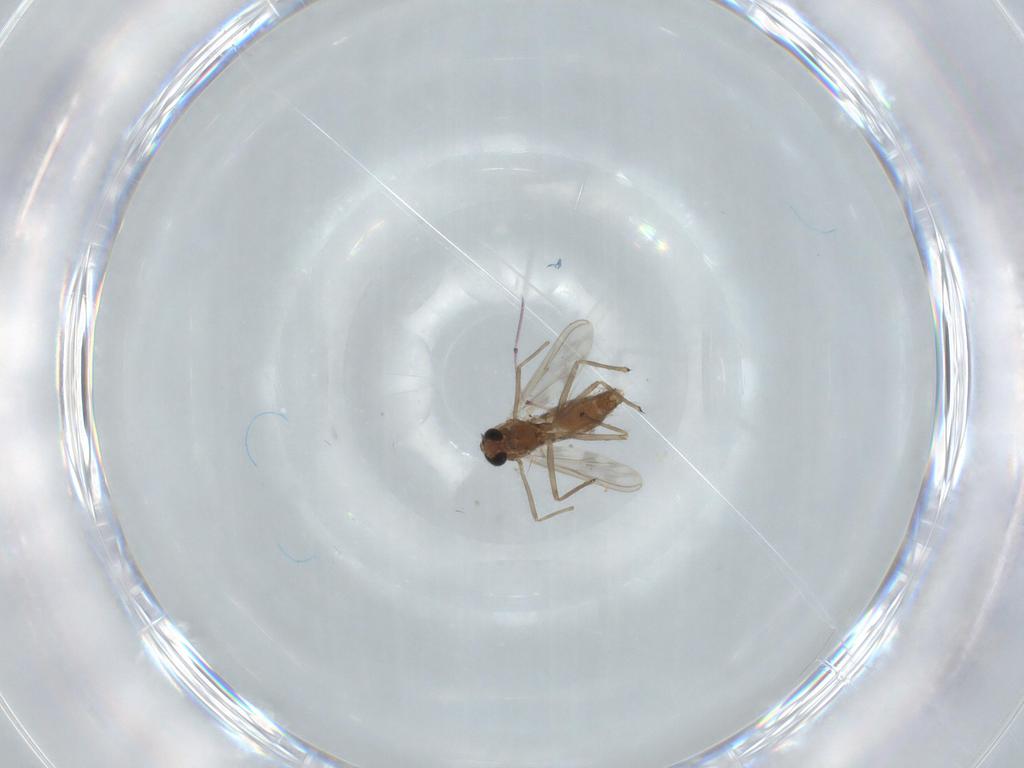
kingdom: Animalia
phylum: Arthropoda
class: Insecta
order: Diptera
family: Chironomidae
